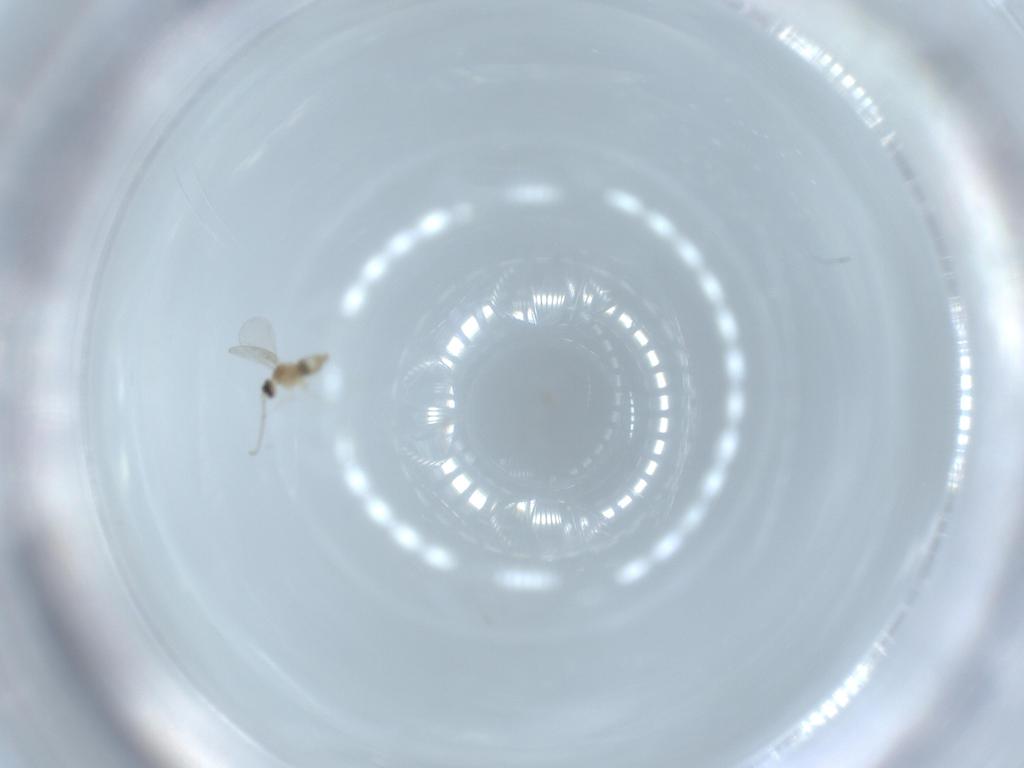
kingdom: Animalia
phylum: Arthropoda
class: Insecta
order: Diptera
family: Cecidomyiidae
